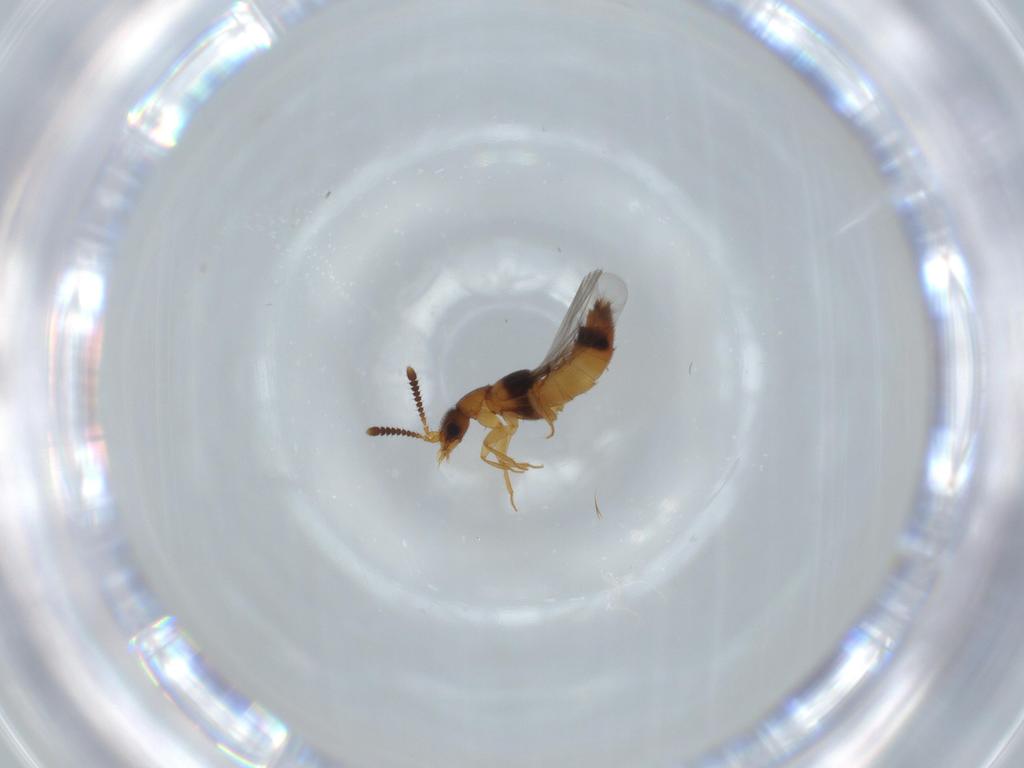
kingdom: Animalia
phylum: Arthropoda
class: Insecta
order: Coleoptera
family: Staphylinidae
